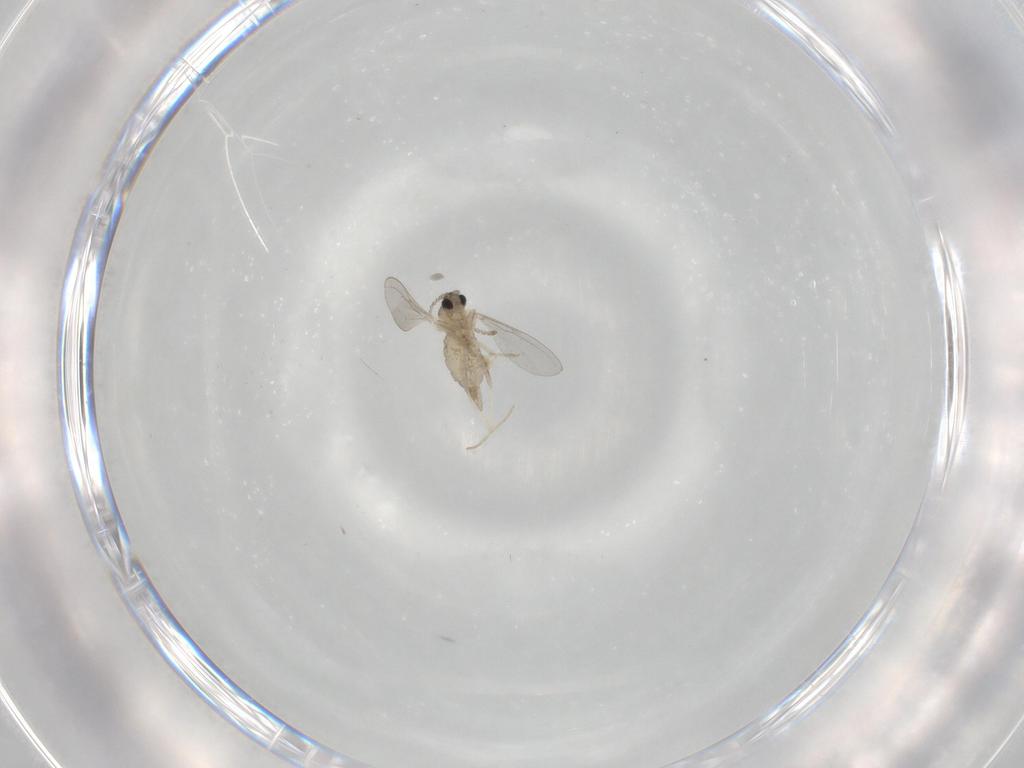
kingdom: Animalia
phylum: Arthropoda
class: Insecta
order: Diptera
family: Cecidomyiidae
